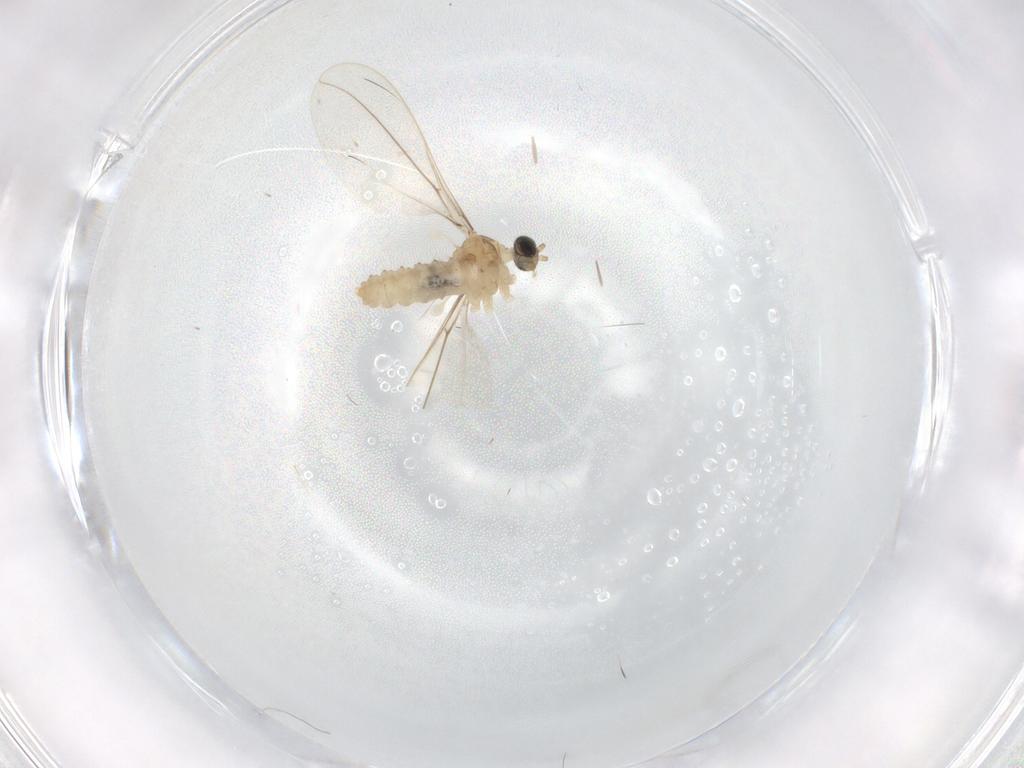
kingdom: Animalia
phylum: Arthropoda
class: Insecta
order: Diptera
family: Cecidomyiidae
